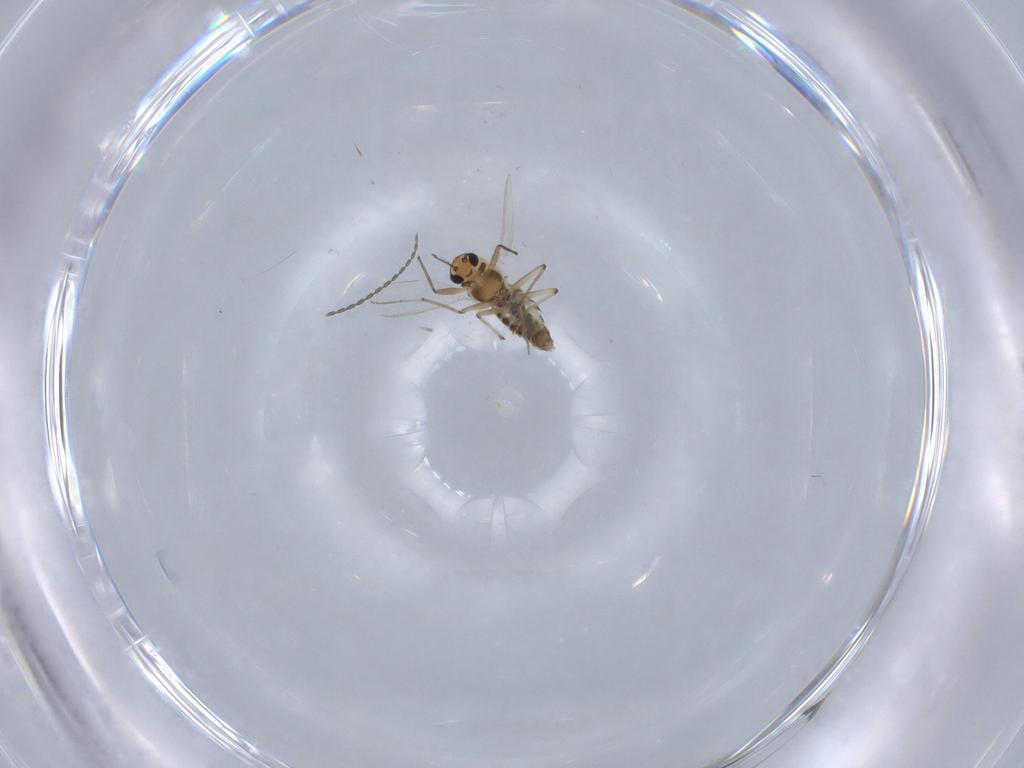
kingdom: Animalia
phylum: Arthropoda
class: Insecta
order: Diptera
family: Chironomidae
